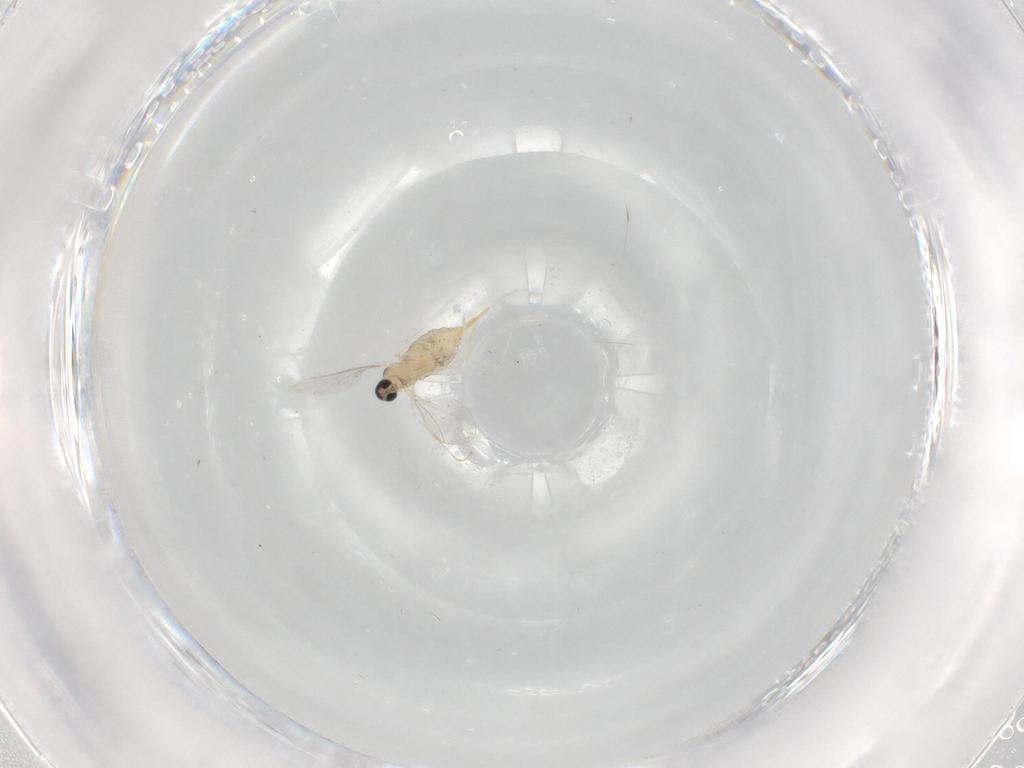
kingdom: Animalia
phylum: Arthropoda
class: Insecta
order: Diptera
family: Cecidomyiidae
